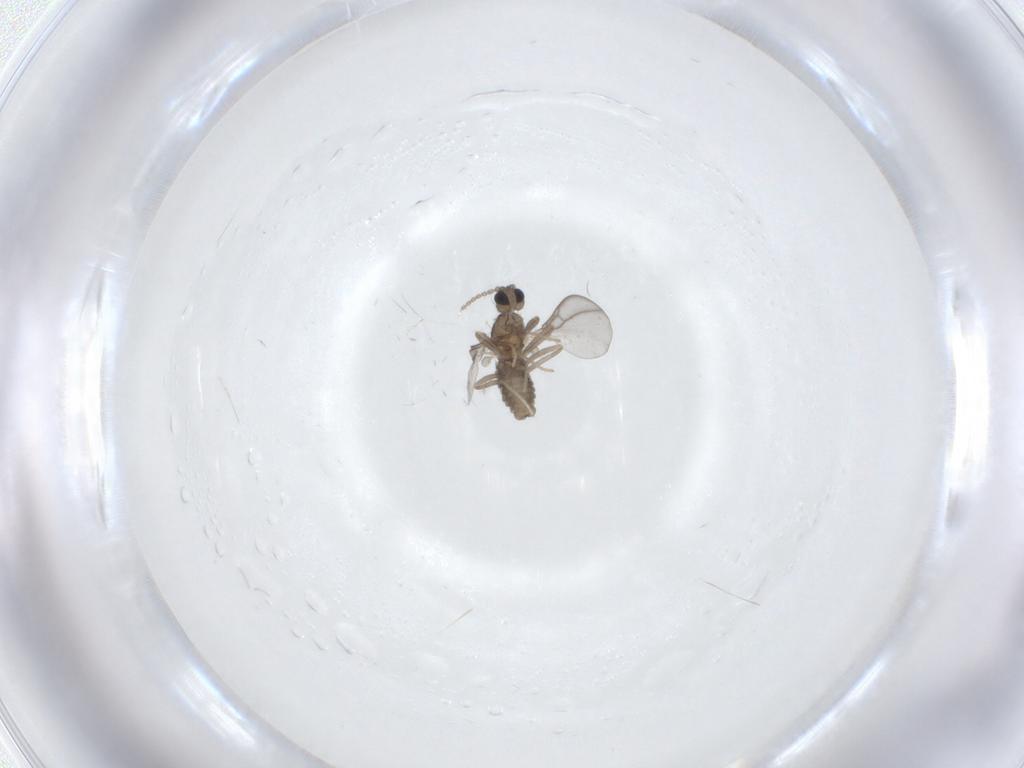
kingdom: Animalia
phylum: Arthropoda
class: Insecta
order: Diptera
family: Cecidomyiidae
